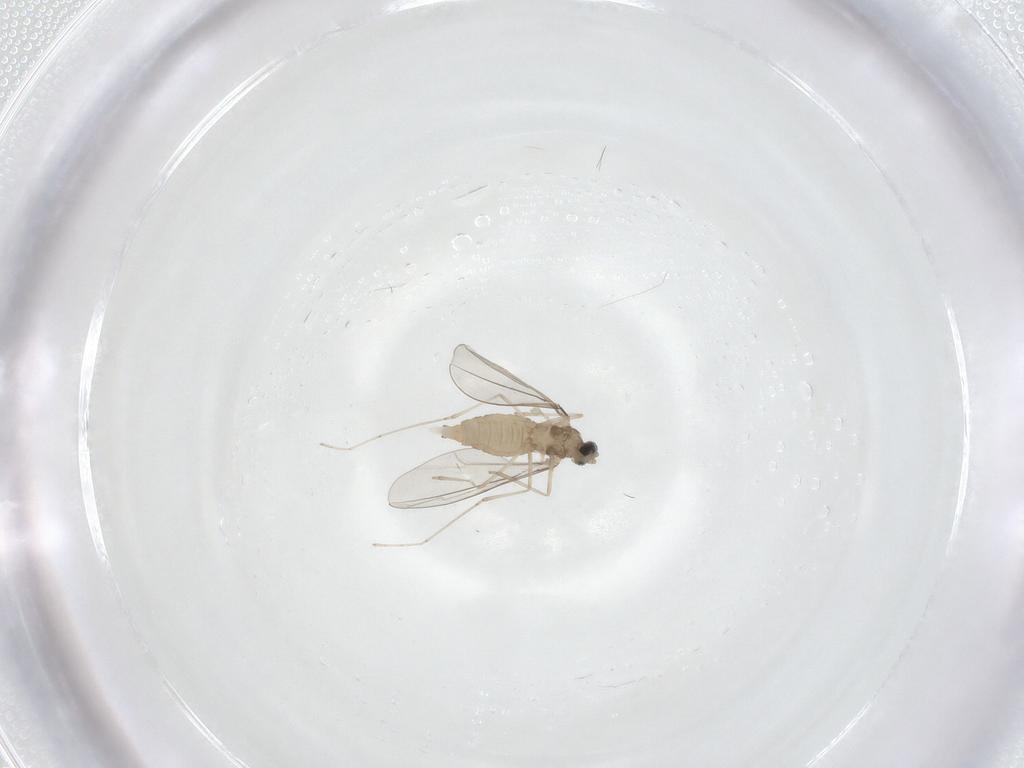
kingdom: Animalia
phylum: Arthropoda
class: Insecta
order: Diptera
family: Cecidomyiidae
